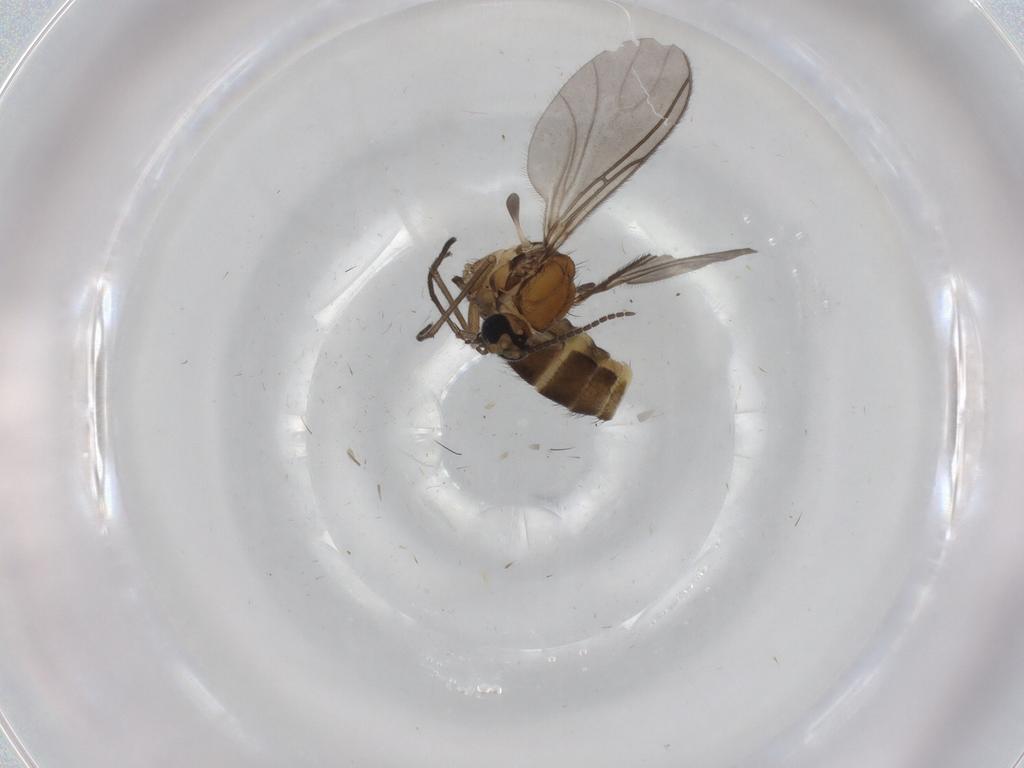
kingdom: Animalia
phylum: Arthropoda
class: Insecta
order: Diptera
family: Sciaridae
